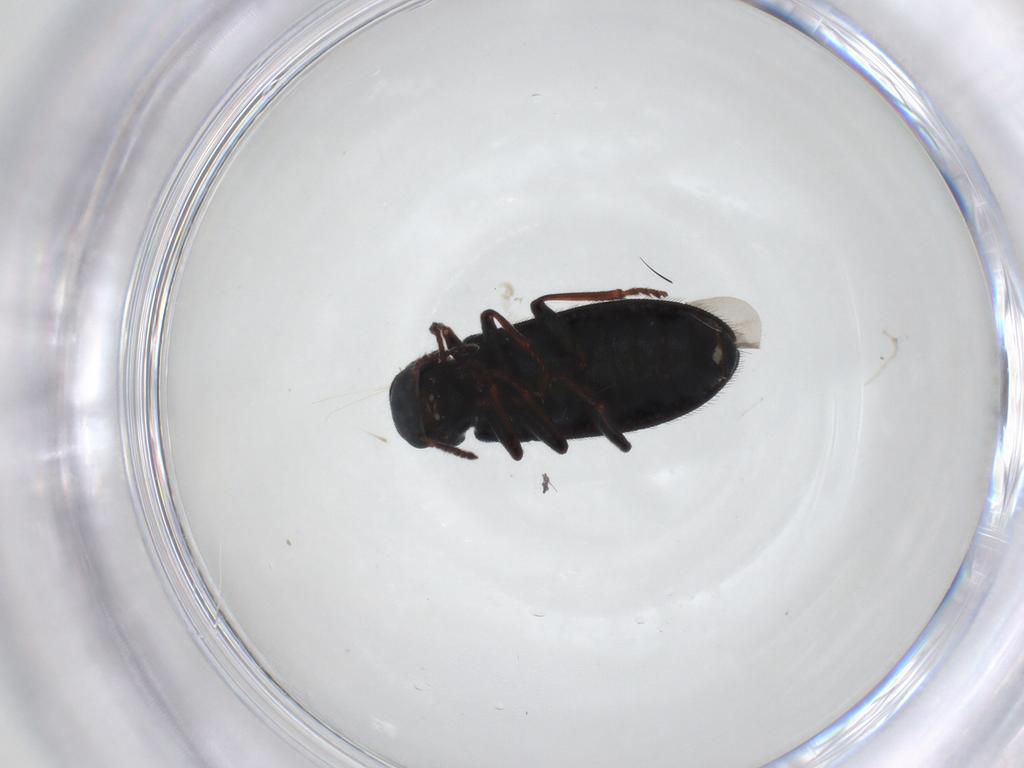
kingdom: Animalia
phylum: Arthropoda
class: Insecta
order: Coleoptera
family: Melyridae
